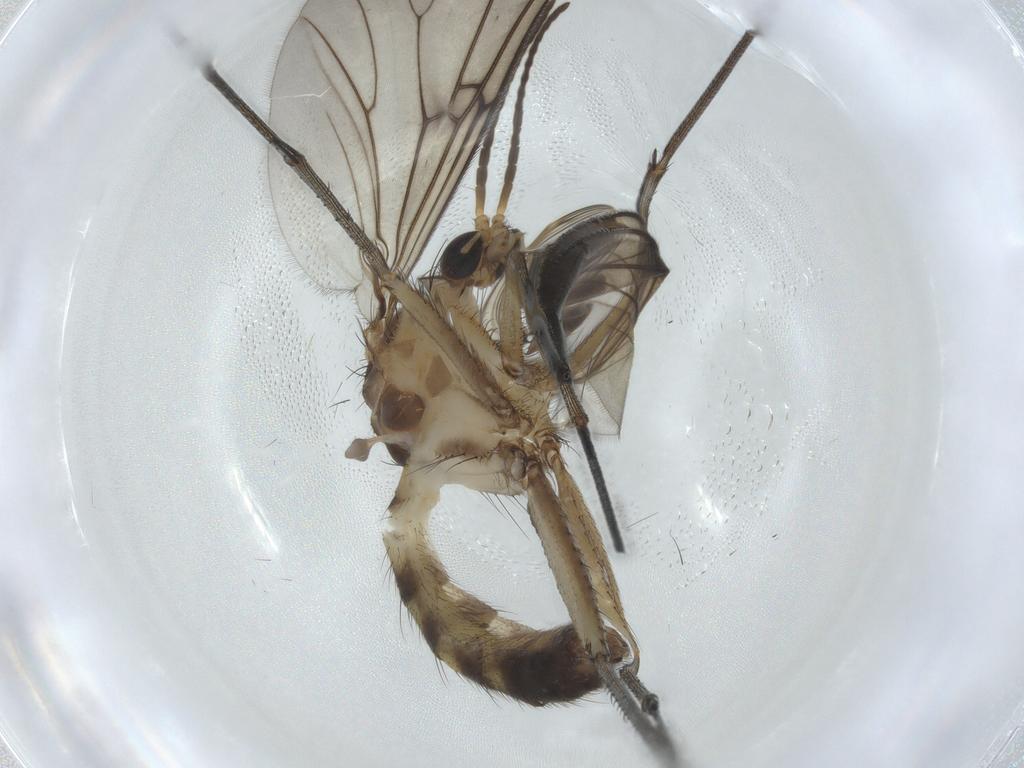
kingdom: Animalia
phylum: Arthropoda
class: Insecta
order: Diptera
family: Mycetophilidae
